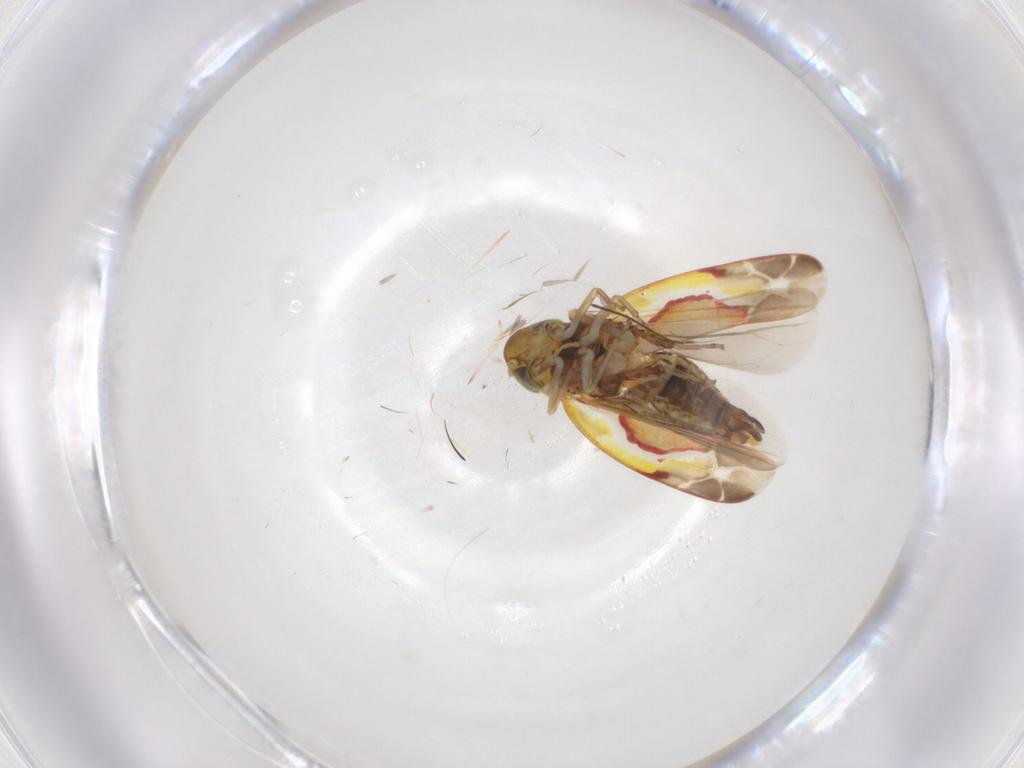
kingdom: Animalia
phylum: Arthropoda
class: Insecta
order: Hemiptera
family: Cicadellidae
